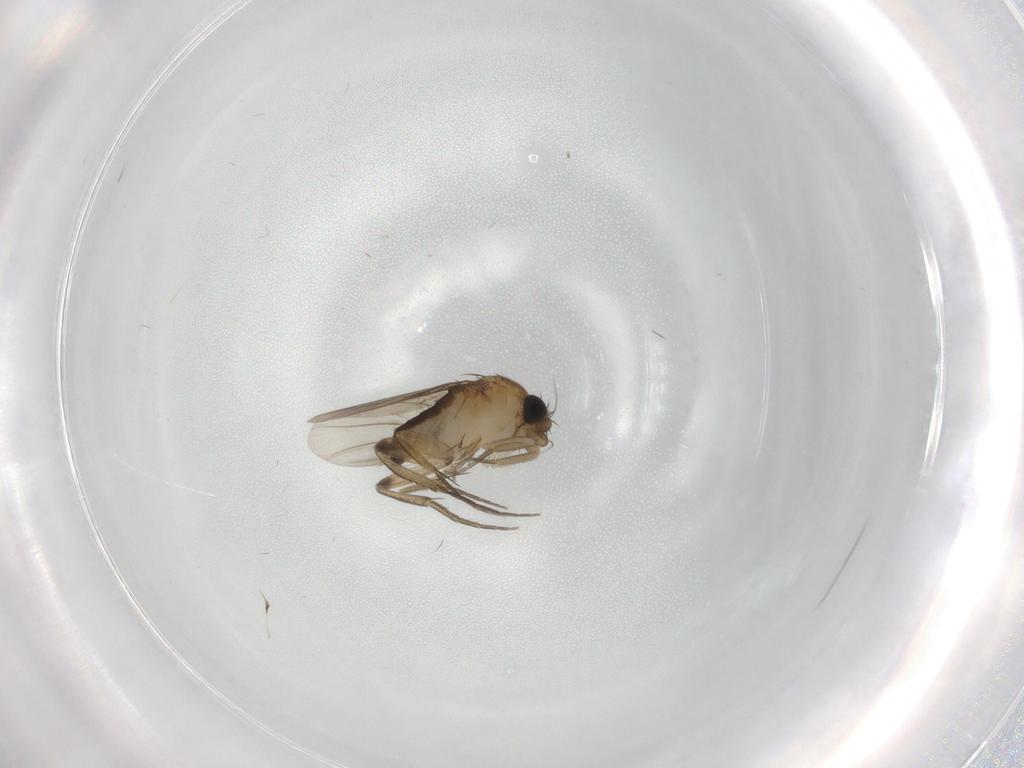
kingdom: Animalia
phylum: Arthropoda
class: Insecta
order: Diptera
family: Phoridae
